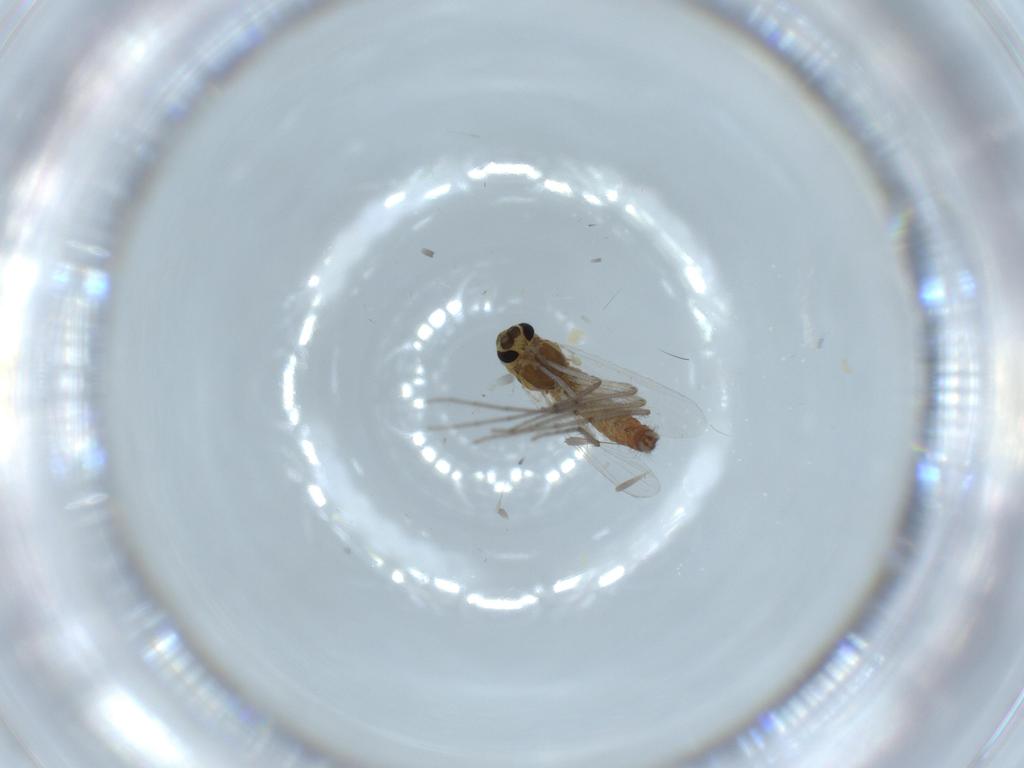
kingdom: Animalia
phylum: Arthropoda
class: Insecta
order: Diptera
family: Chironomidae
